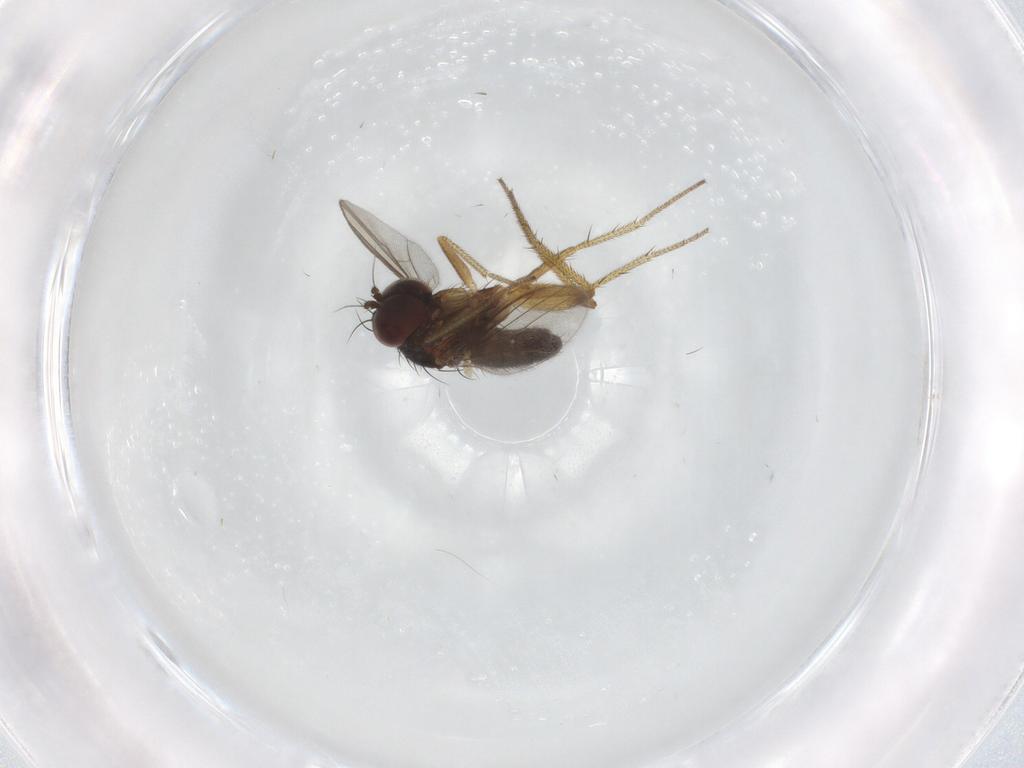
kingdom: Animalia
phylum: Arthropoda
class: Insecta
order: Diptera
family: Dolichopodidae
